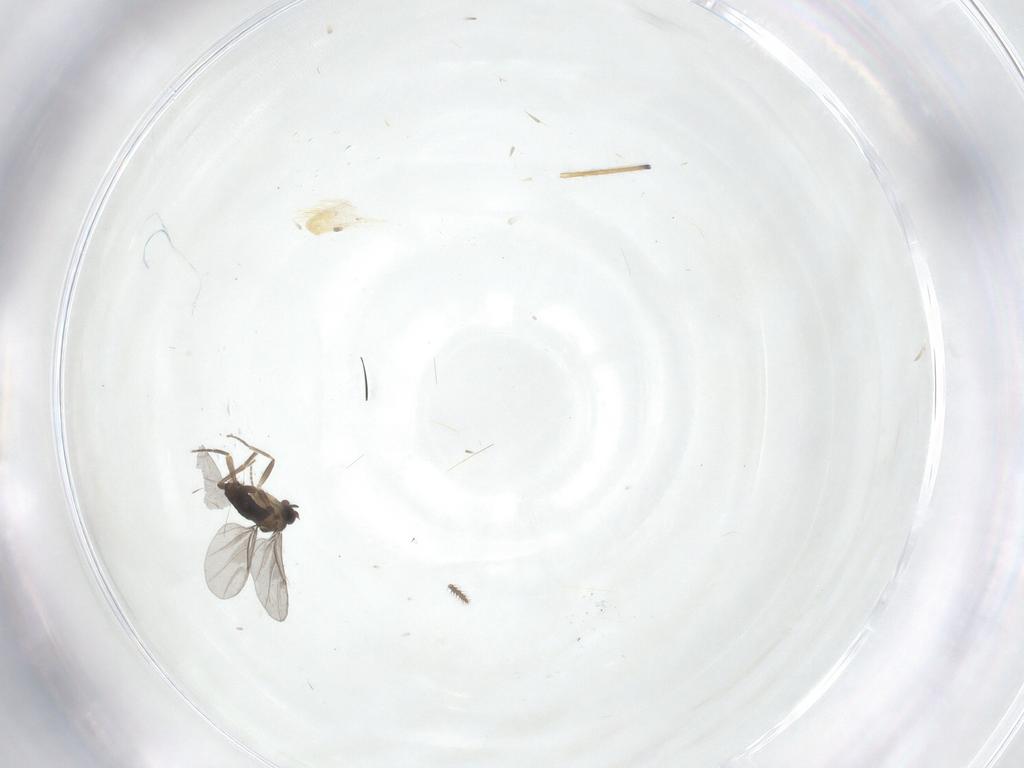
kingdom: Animalia
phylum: Arthropoda
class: Insecta
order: Diptera
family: Phoridae
